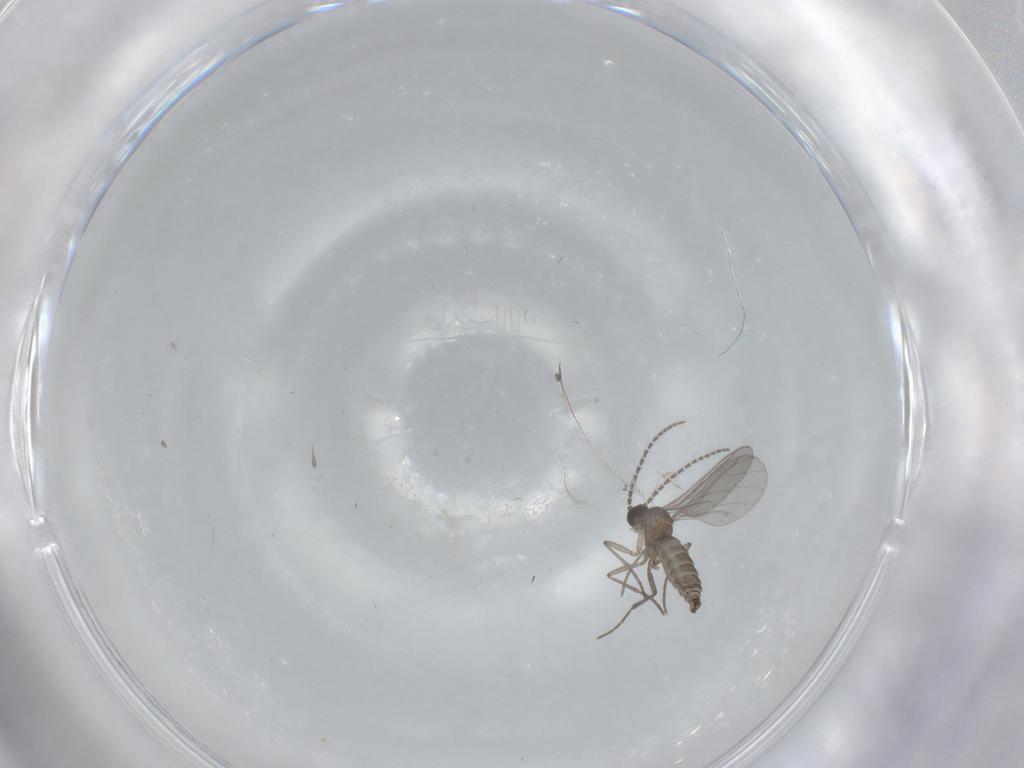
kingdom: Animalia
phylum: Arthropoda
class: Insecta
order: Diptera
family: Sciaridae
